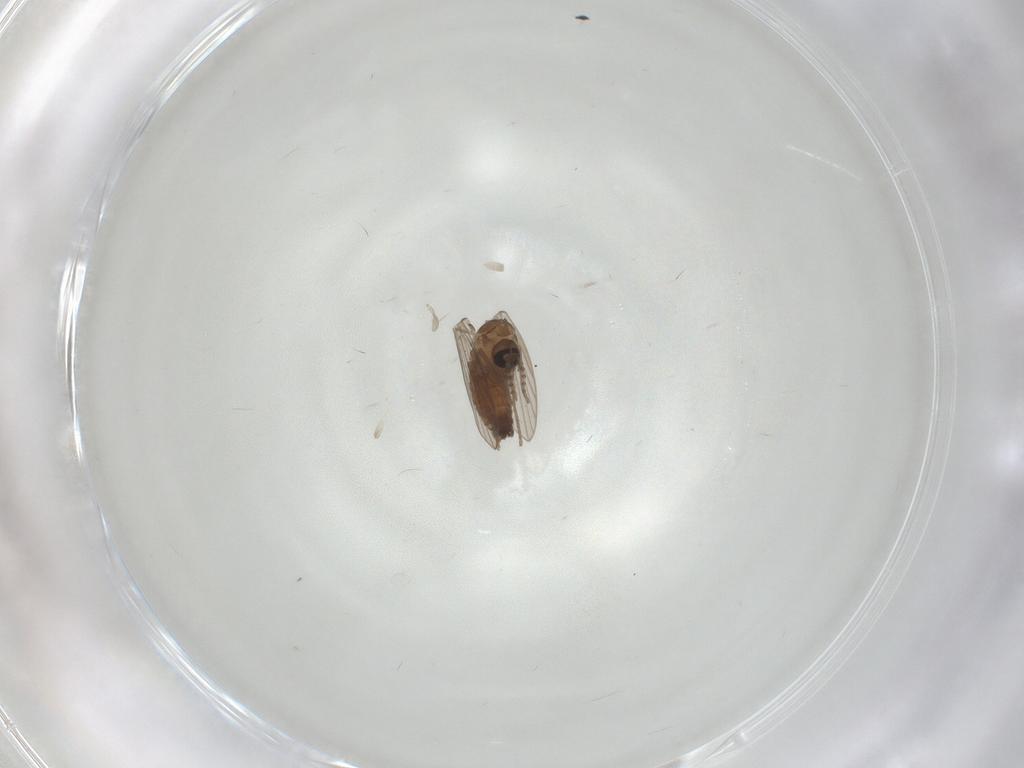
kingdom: Animalia
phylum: Arthropoda
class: Insecta
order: Diptera
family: Psychodidae
